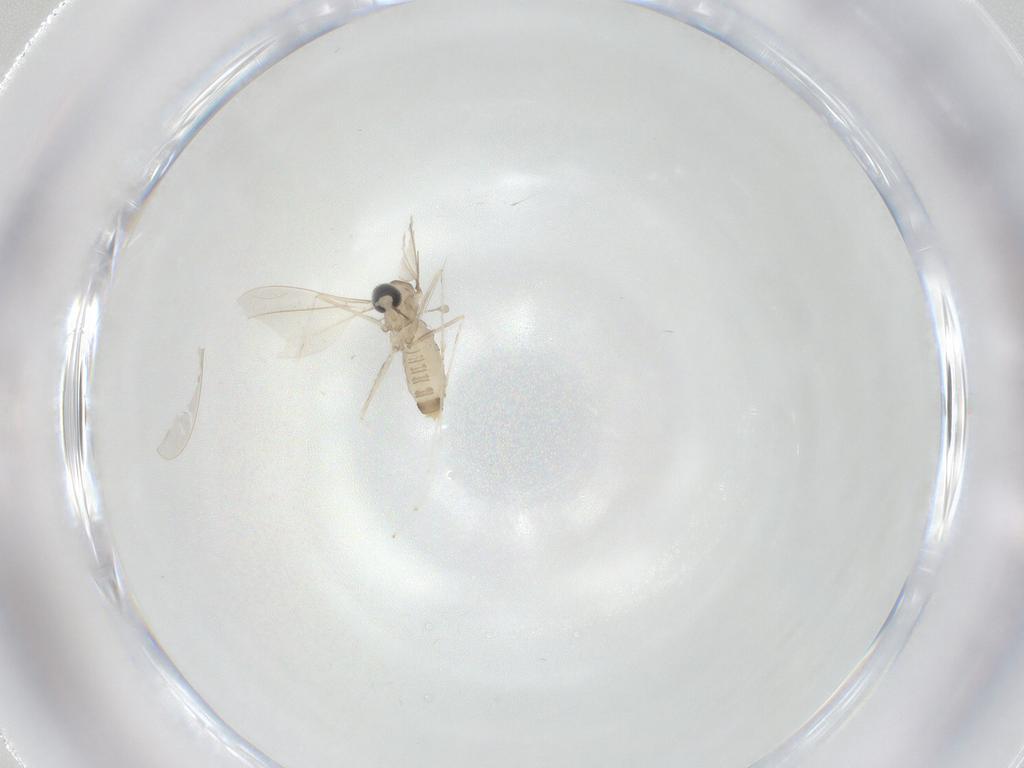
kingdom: Animalia
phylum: Arthropoda
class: Insecta
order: Diptera
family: Cecidomyiidae
